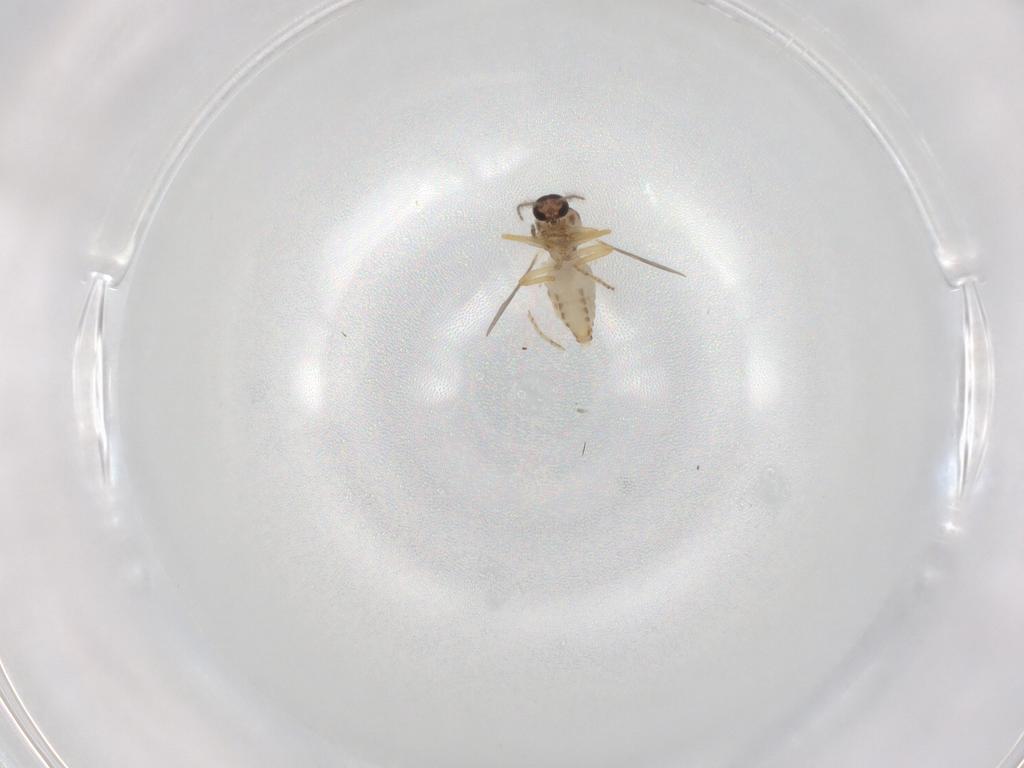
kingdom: Animalia
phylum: Arthropoda
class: Insecta
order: Diptera
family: Ceratopogonidae
